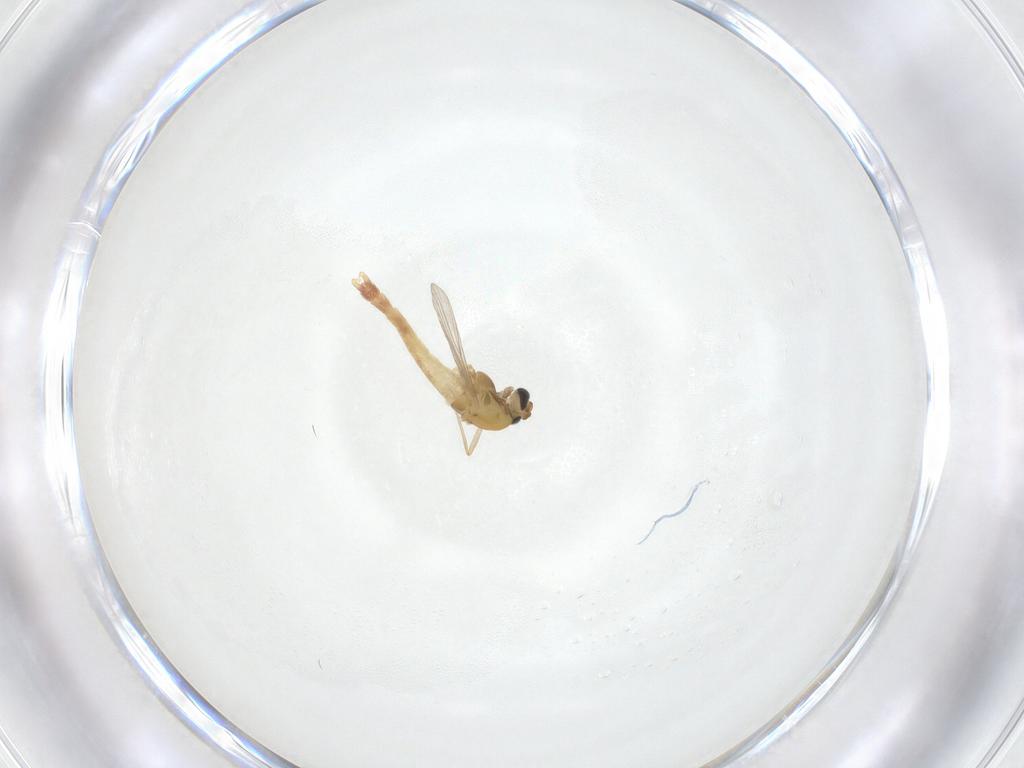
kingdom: Animalia
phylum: Arthropoda
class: Insecta
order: Diptera
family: Chironomidae
